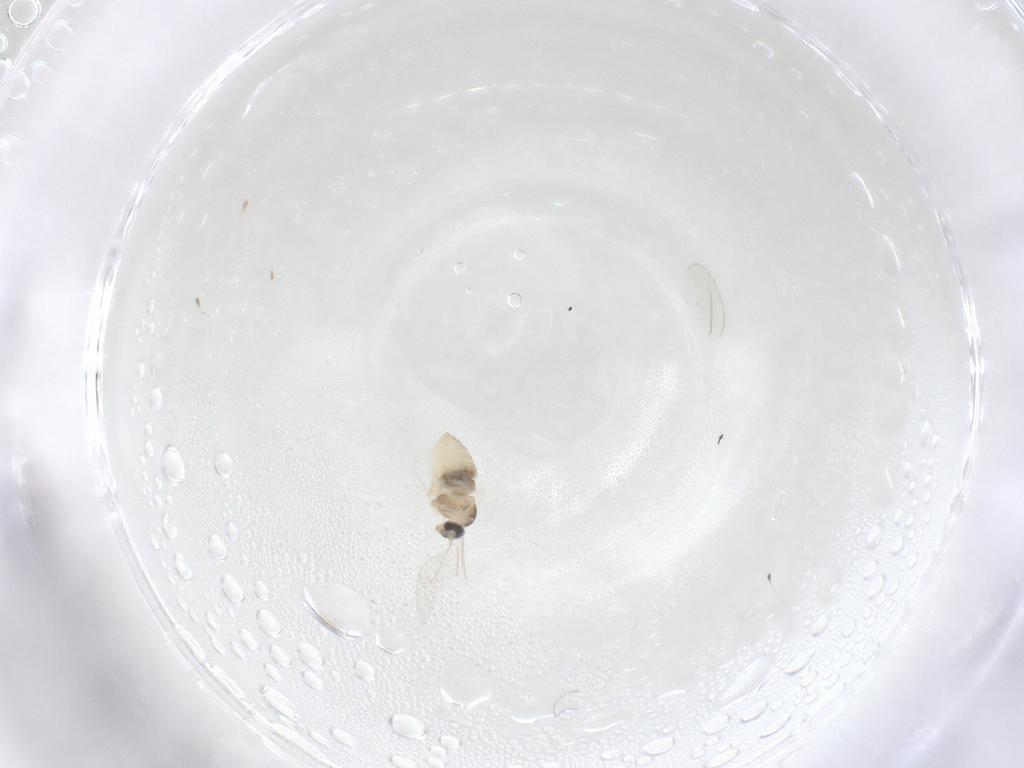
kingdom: Animalia
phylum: Arthropoda
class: Insecta
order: Diptera
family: Cecidomyiidae
